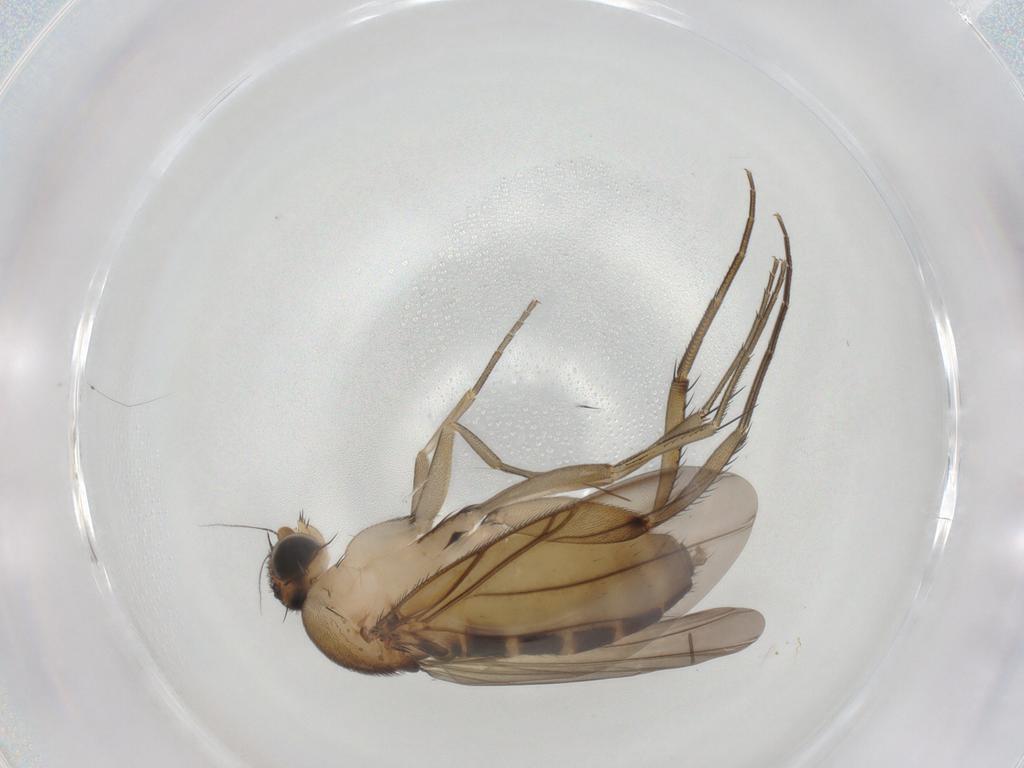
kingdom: Animalia
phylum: Arthropoda
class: Insecta
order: Diptera
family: Phoridae
